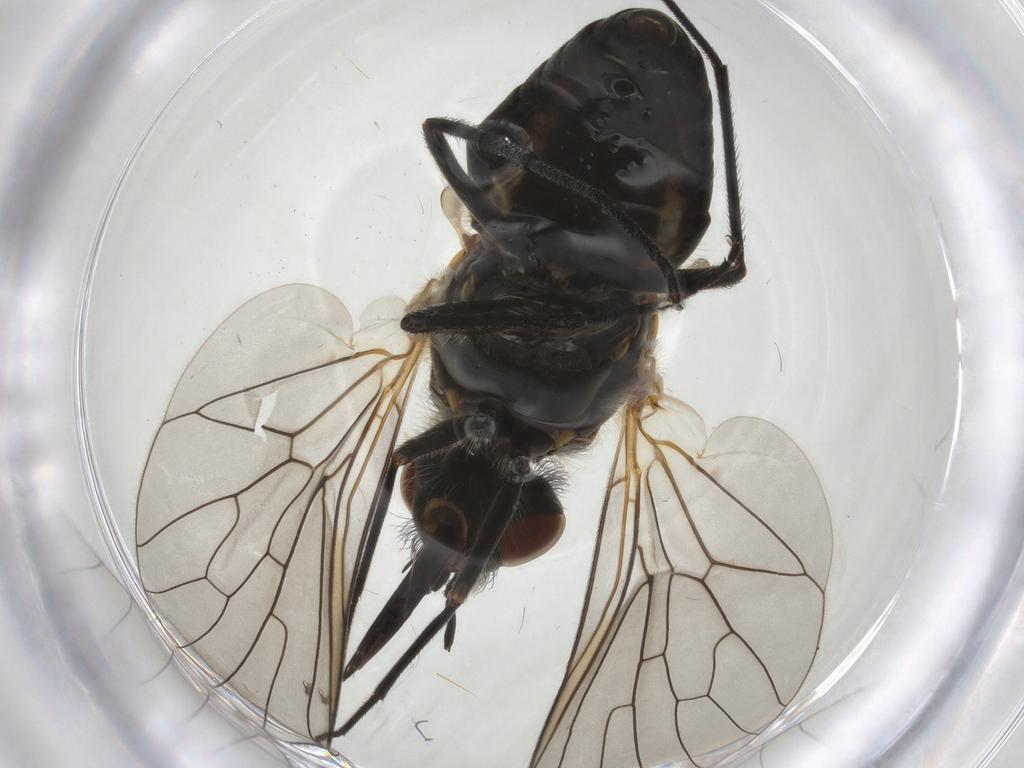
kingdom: Animalia
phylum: Arthropoda
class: Insecta
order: Diptera
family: Bombyliidae
